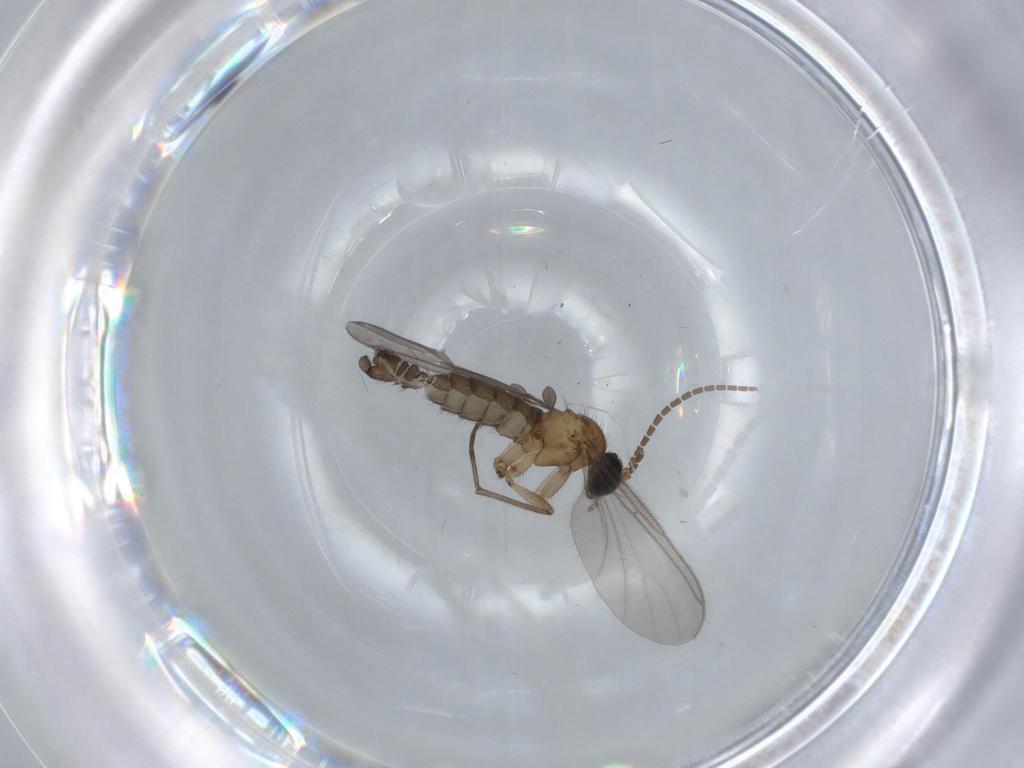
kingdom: Animalia
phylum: Arthropoda
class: Insecta
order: Diptera
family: Sciaridae
